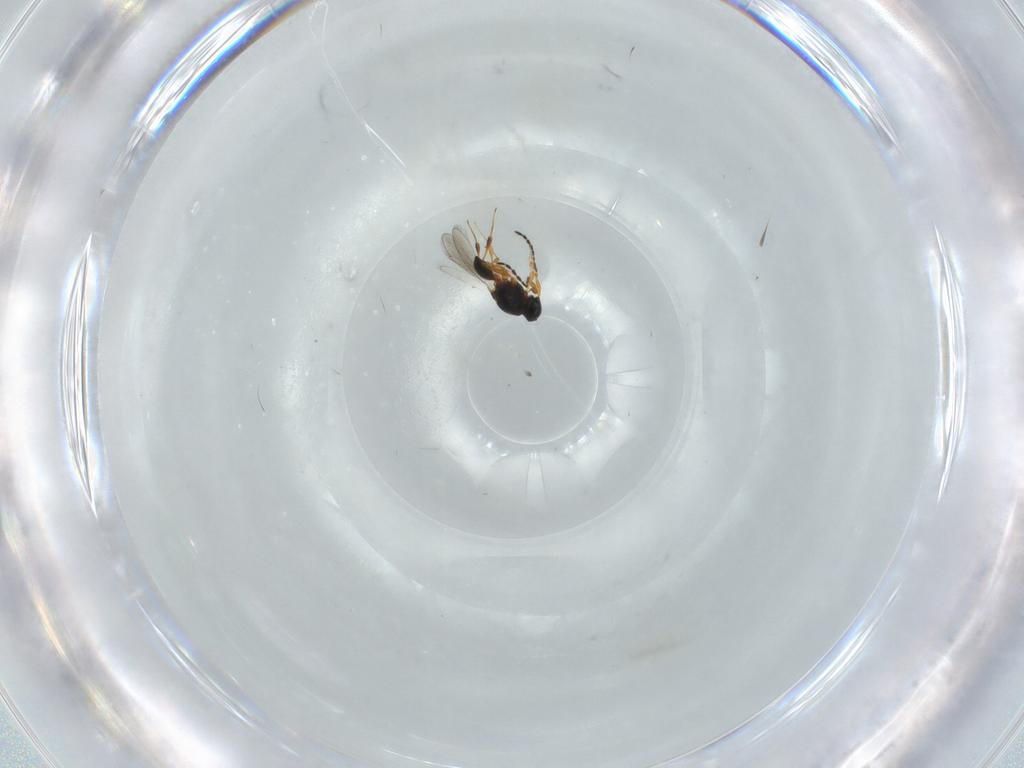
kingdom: Animalia
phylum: Arthropoda
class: Insecta
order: Hymenoptera
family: Platygastridae
